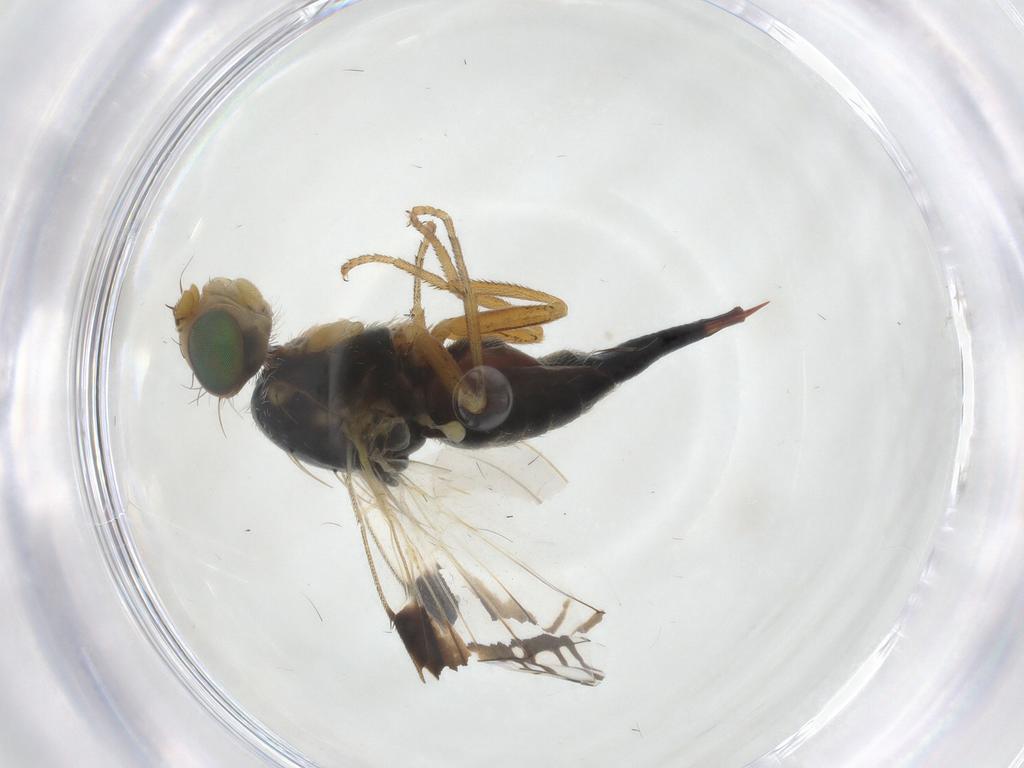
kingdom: Animalia
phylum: Arthropoda
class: Insecta
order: Diptera
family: Tephritidae
